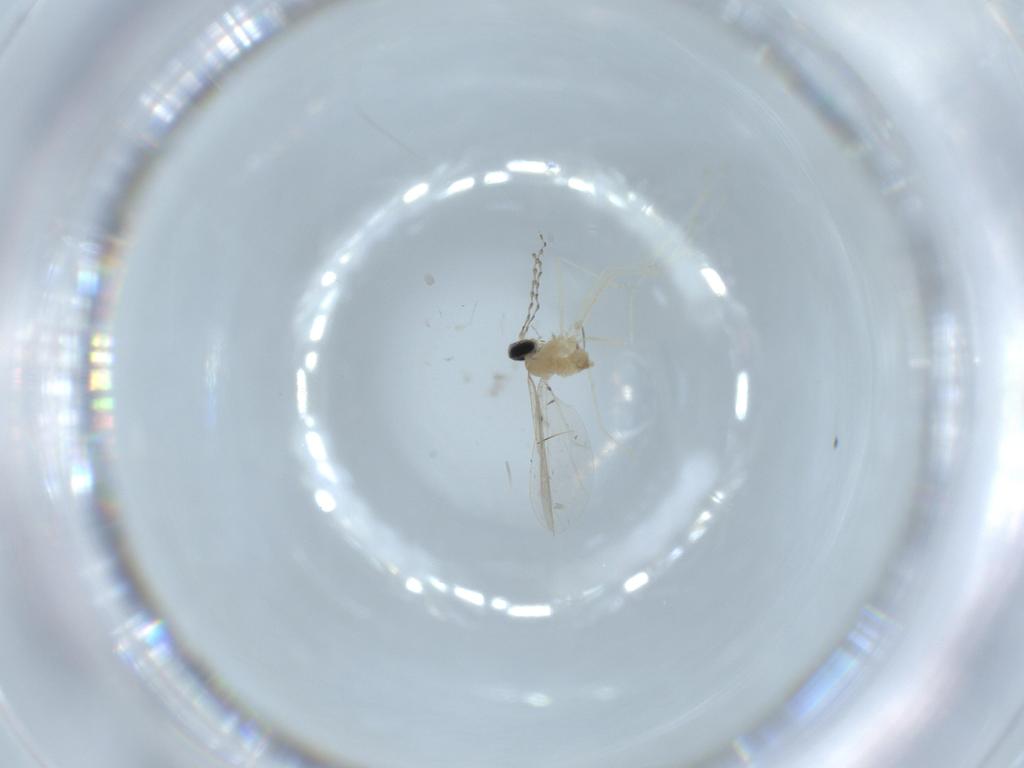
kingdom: Animalia
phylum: Arthropoda
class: Insecta
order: Diptera
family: Cecidomyiidae
